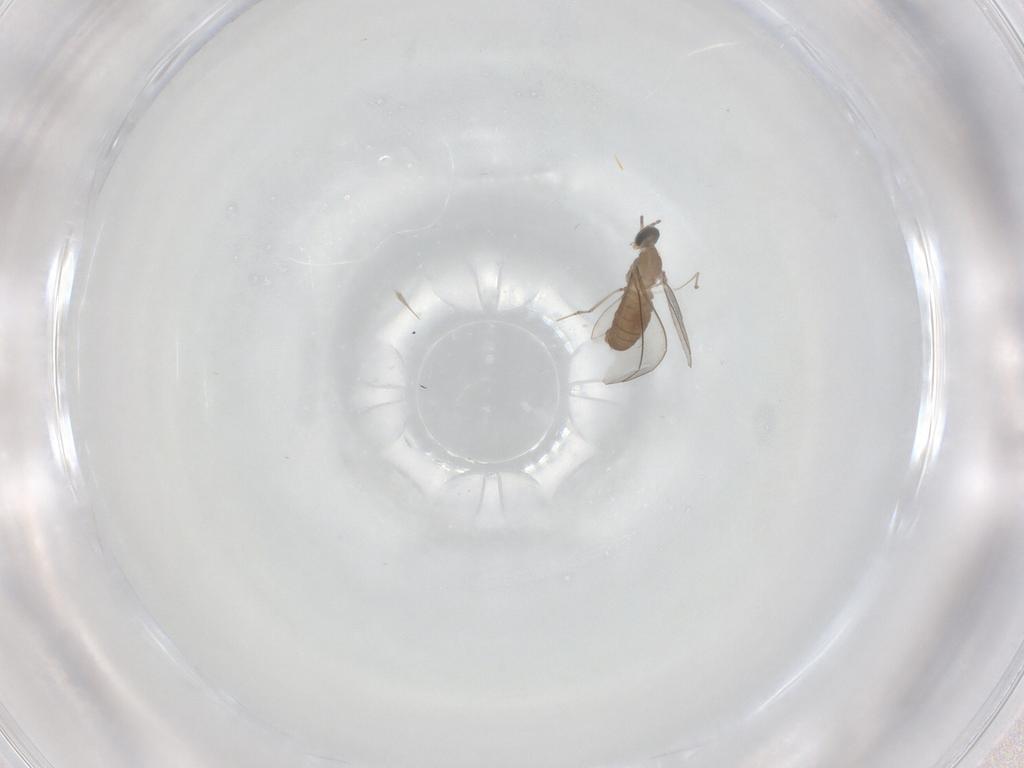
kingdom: Animalia
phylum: Arthropoda
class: Insecta
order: Diptera
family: Cecidomyiidae
